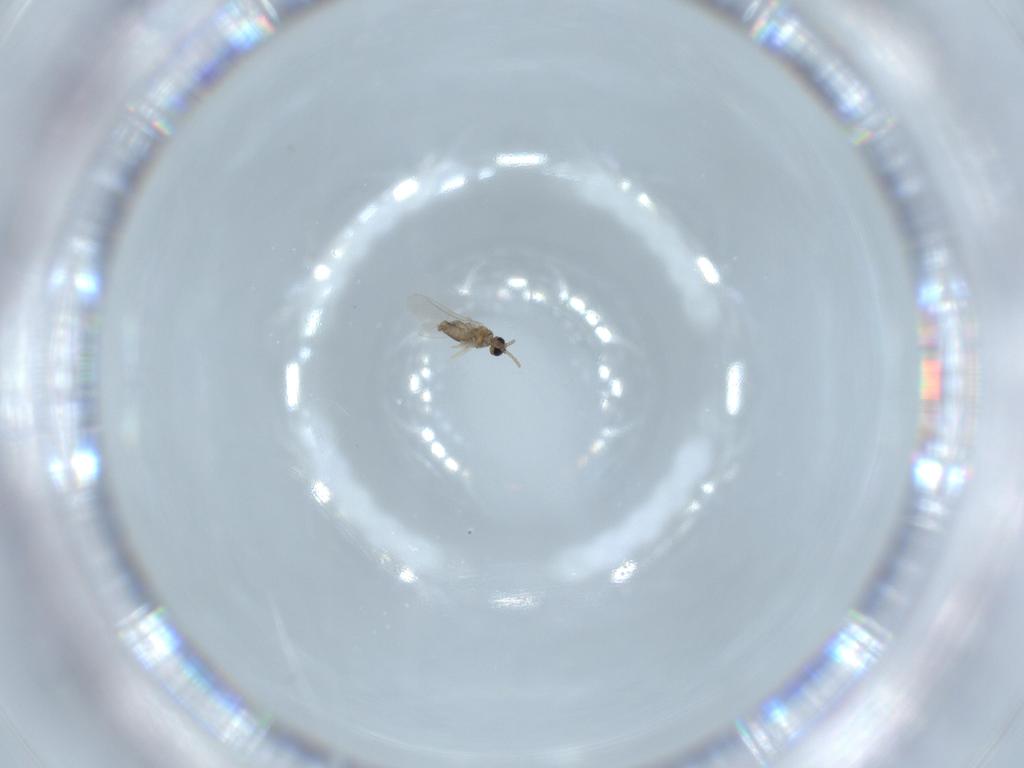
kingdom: Animalia
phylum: Arthropoda
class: Insecta
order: Diptera
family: Cecidomyiidae
